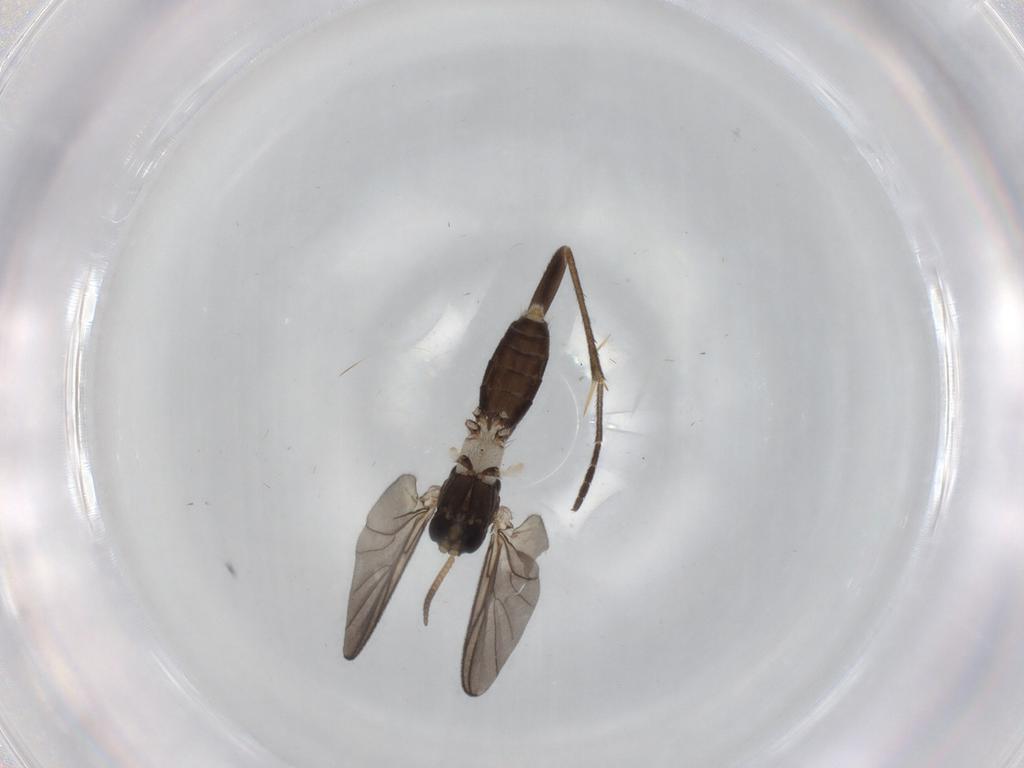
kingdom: Animalia
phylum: Arthropoda
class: Insecta
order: Diptera
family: Mycetophilidae
